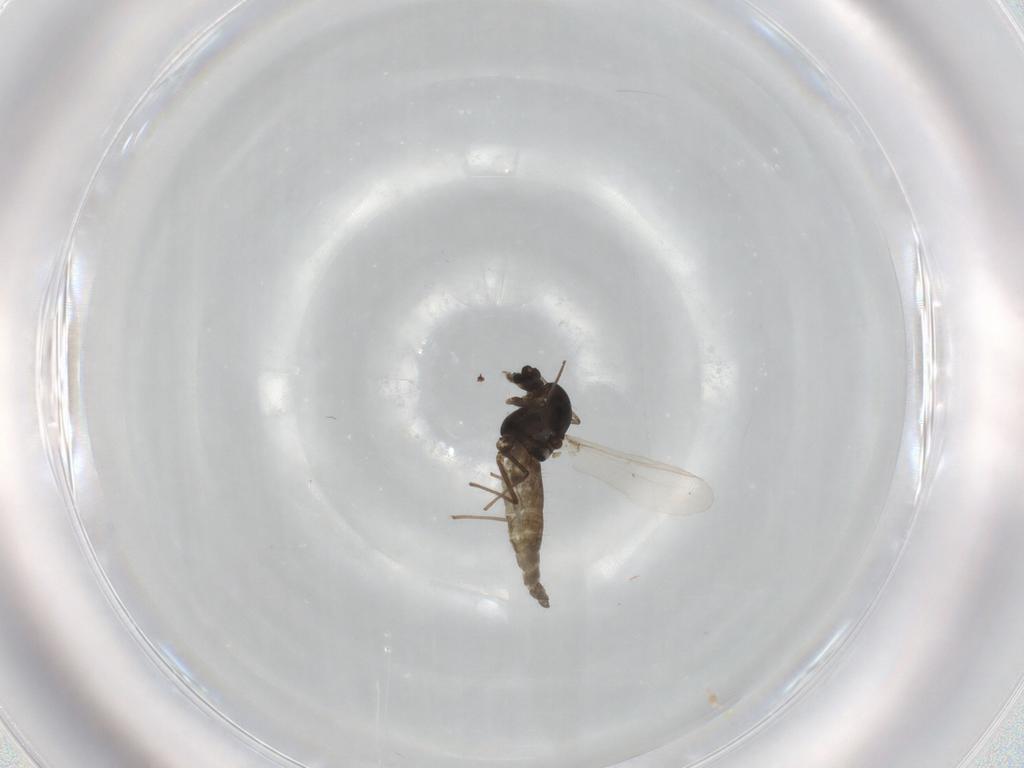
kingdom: Animalia
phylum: Arthropoda
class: Insecta
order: Diptera
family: Chironomidae
